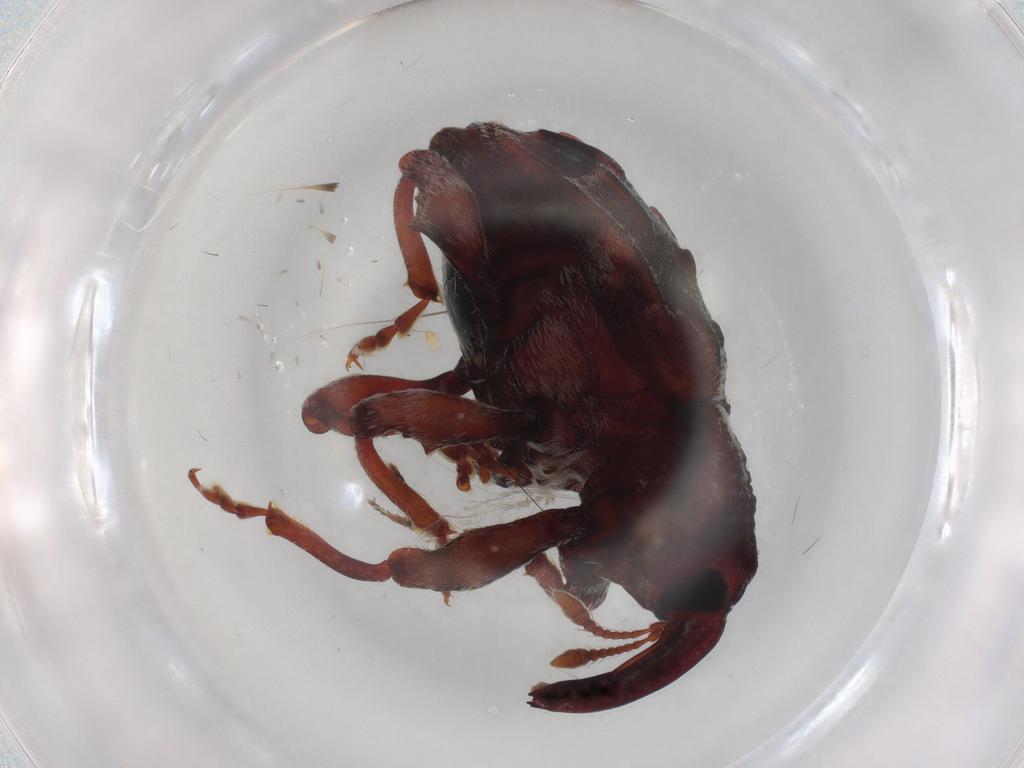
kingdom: Animalia
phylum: Arthropoda
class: Insecta
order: Coleoptera
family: Curculionidae
